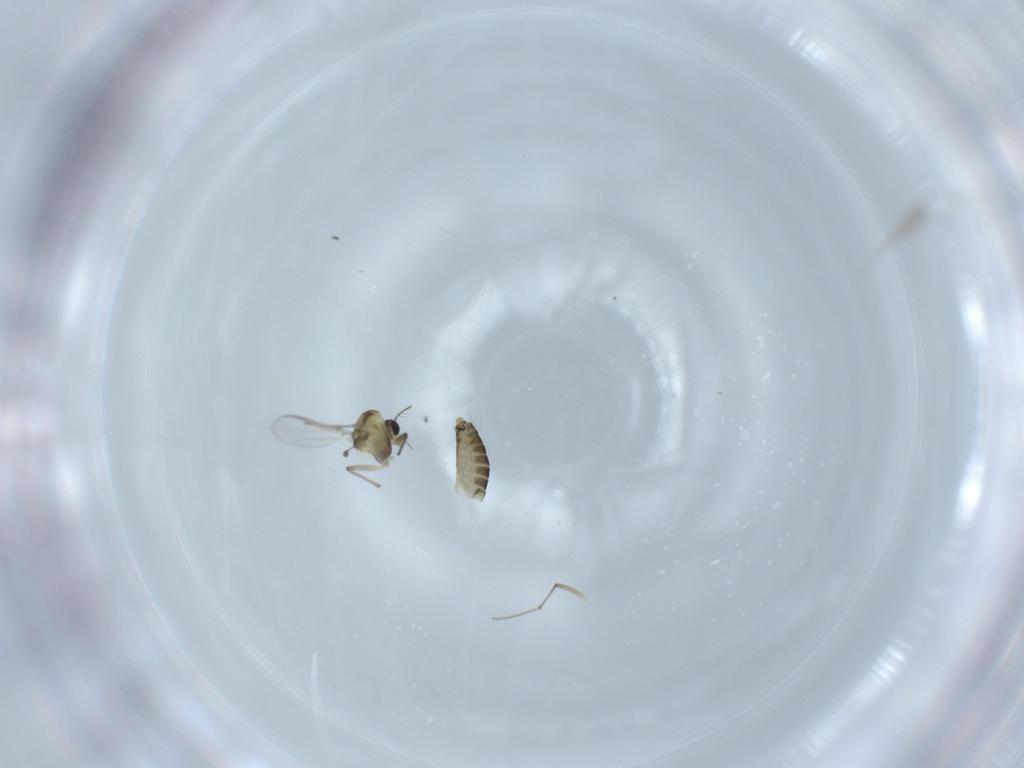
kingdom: Animalia
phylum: Arthropoda
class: Insecta
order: Diptera
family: Chironomidae
